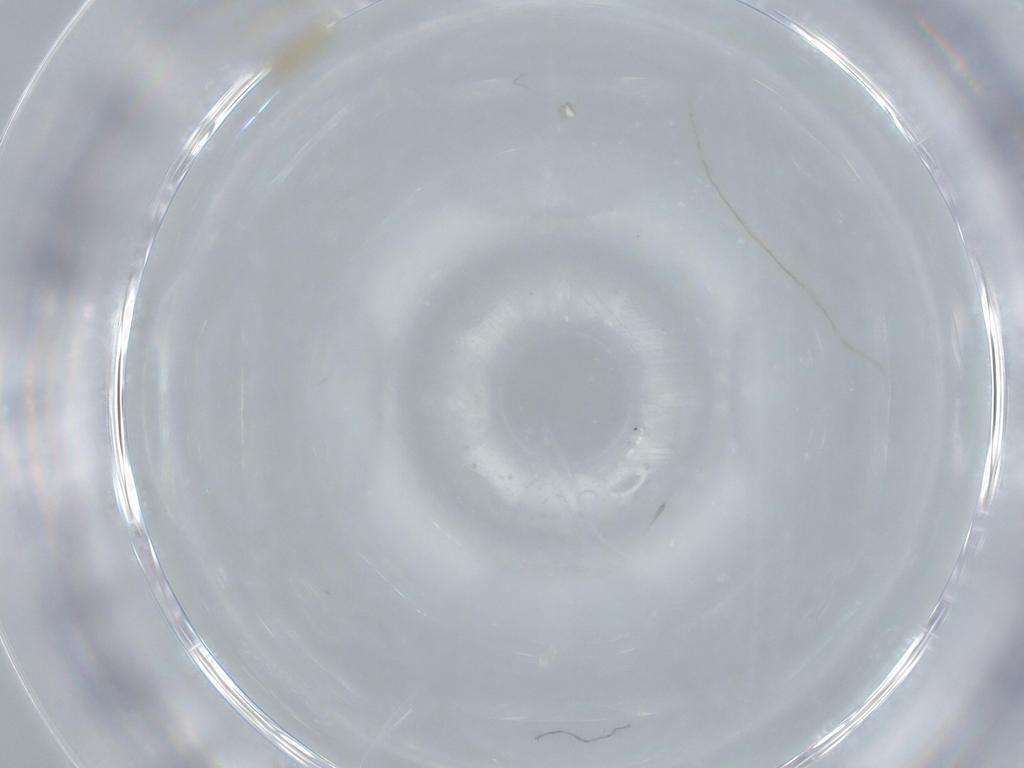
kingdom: Animalia
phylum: Arthropoda
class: Insecta
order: Diptera
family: Cecidomyiidae
